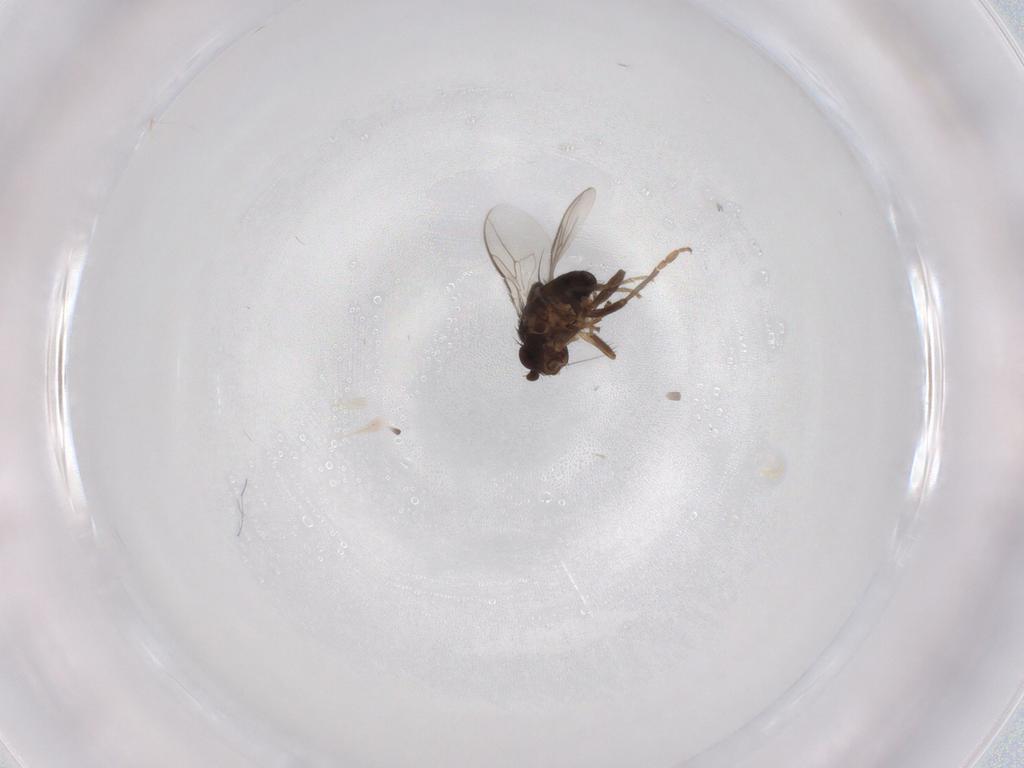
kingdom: Animalia
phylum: Arthropoda
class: Insecta
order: Diptera
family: Sphaeroceridae
